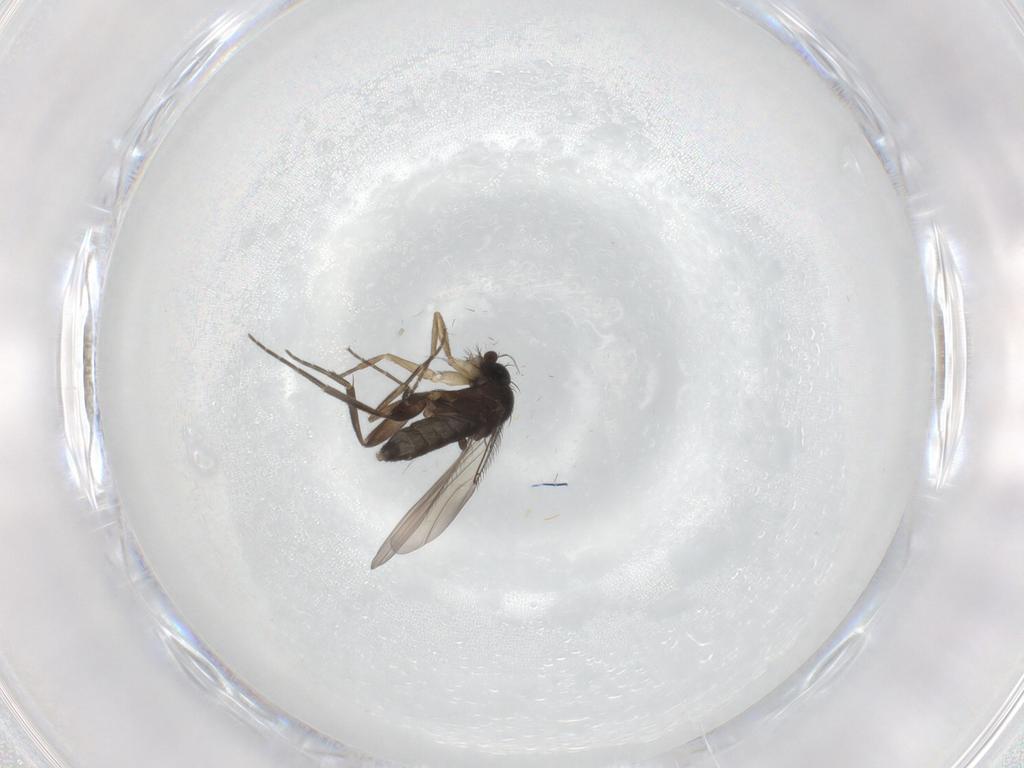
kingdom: Animalia
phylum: Arthropoda
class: Insecta
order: Diptera
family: Phoridae
